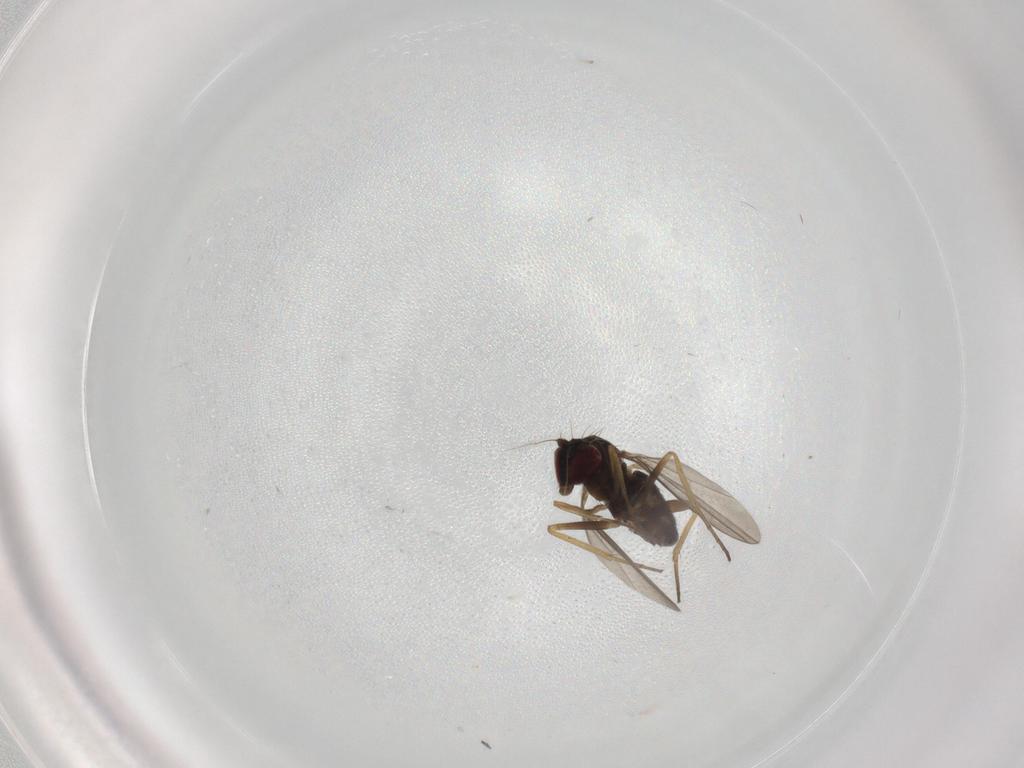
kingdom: Animalia
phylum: Arthropoda
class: Insecta
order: Diptera
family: Dolichopodidae
